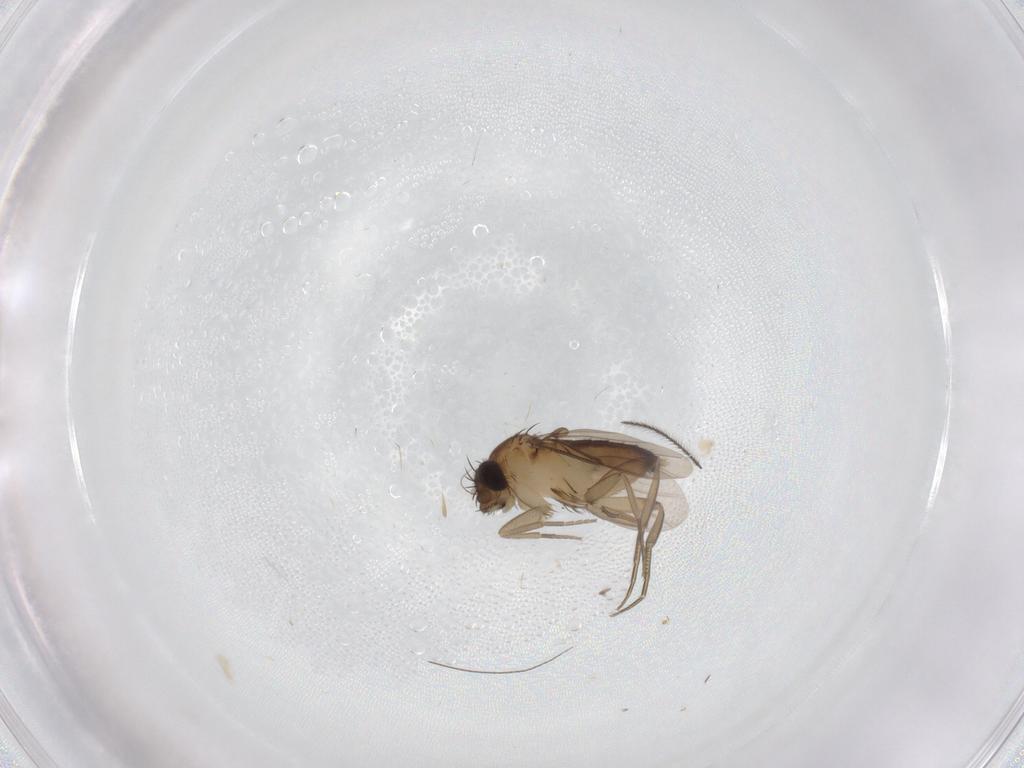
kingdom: Animalia
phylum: Arthropoda
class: Insecta
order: Diptera
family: Phoridae
